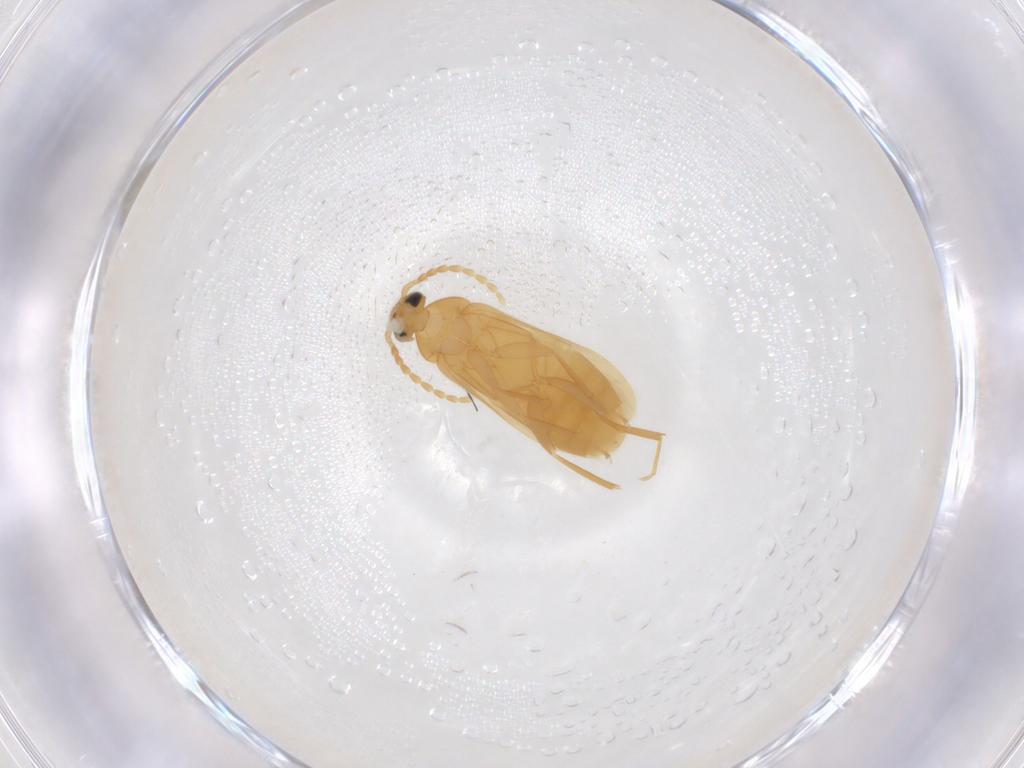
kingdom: Animalia
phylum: Arthropoda
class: Insecta
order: Coleoptera
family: Scraptiidae
